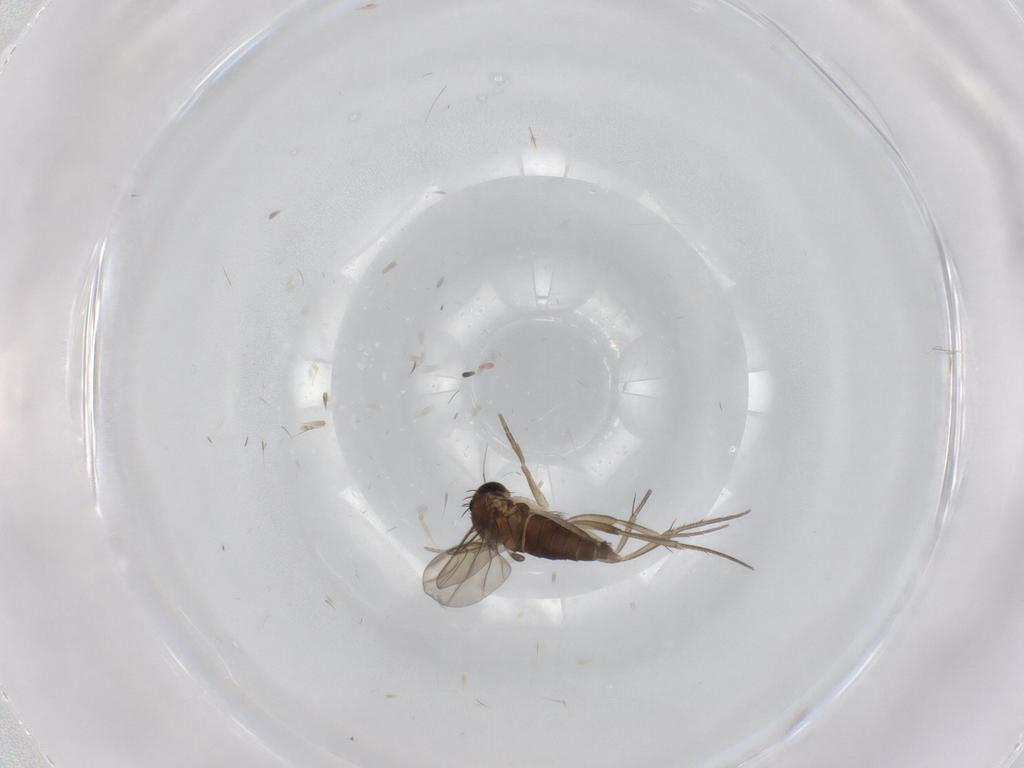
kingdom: Animalia
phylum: Arthropoda
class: Insecta
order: Diptera
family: Phoridae
